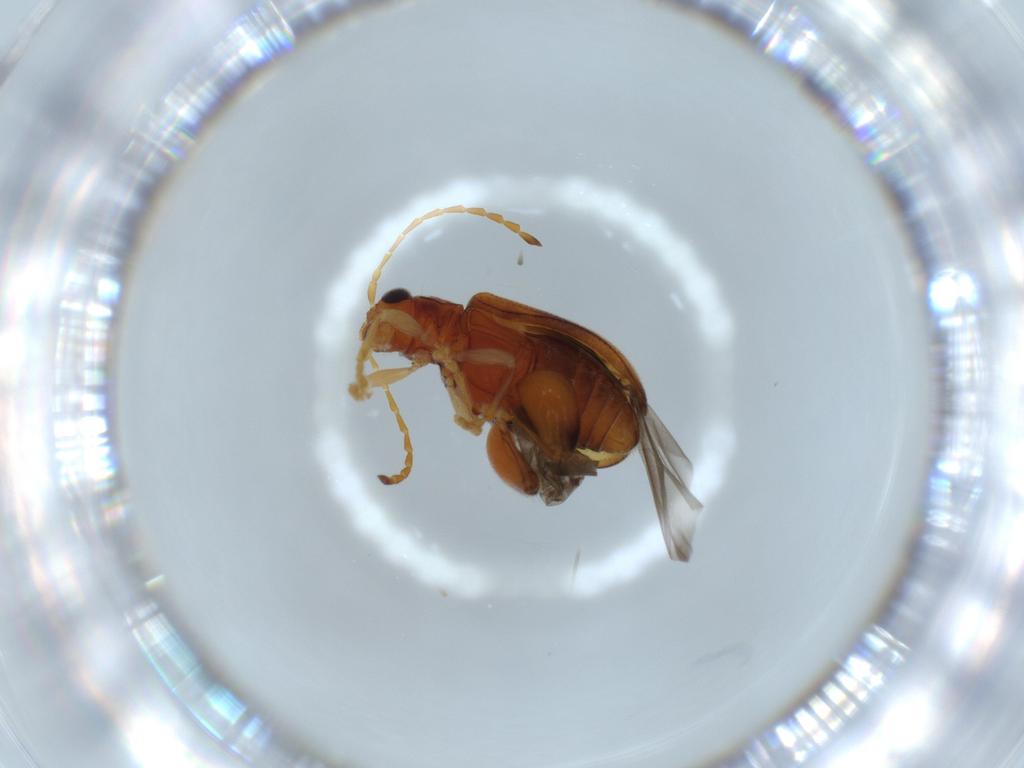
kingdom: Animalia
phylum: Arthropoda
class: Insecta
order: Coleoptera
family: Chrysomelidae
